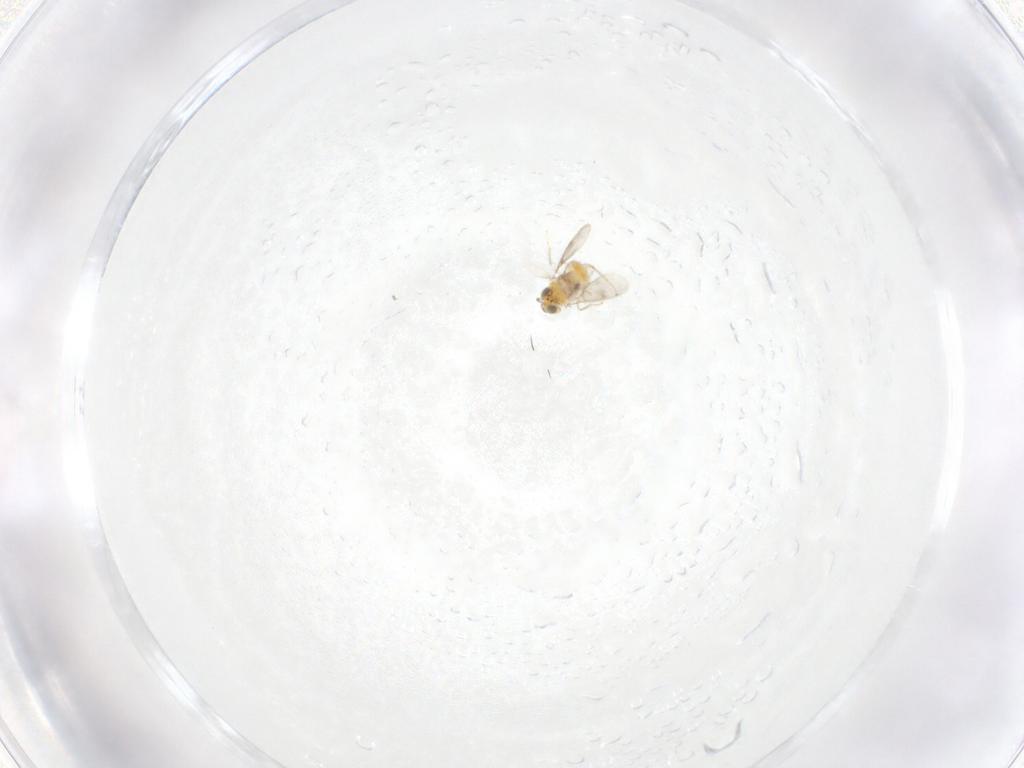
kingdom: Animalia
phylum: Arthropoda
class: Insecta
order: Hymenoptera
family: Aphelinidae
